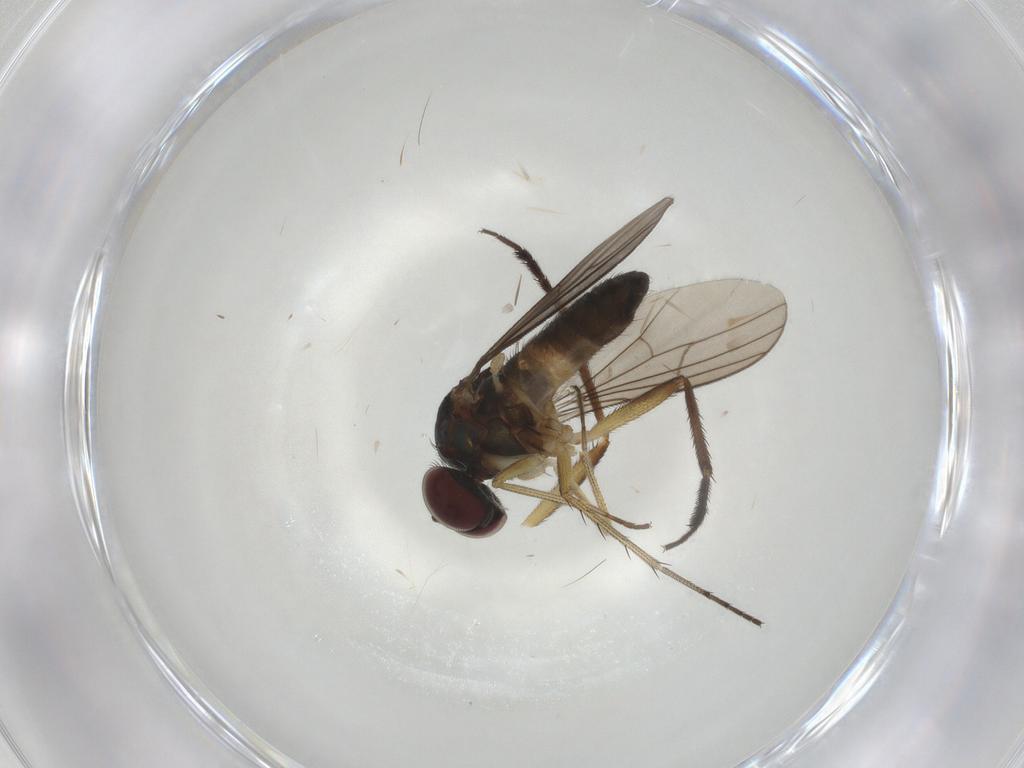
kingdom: Animalia
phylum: Arthropoda
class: Insecta
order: Diptera
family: Dolichopodidae
